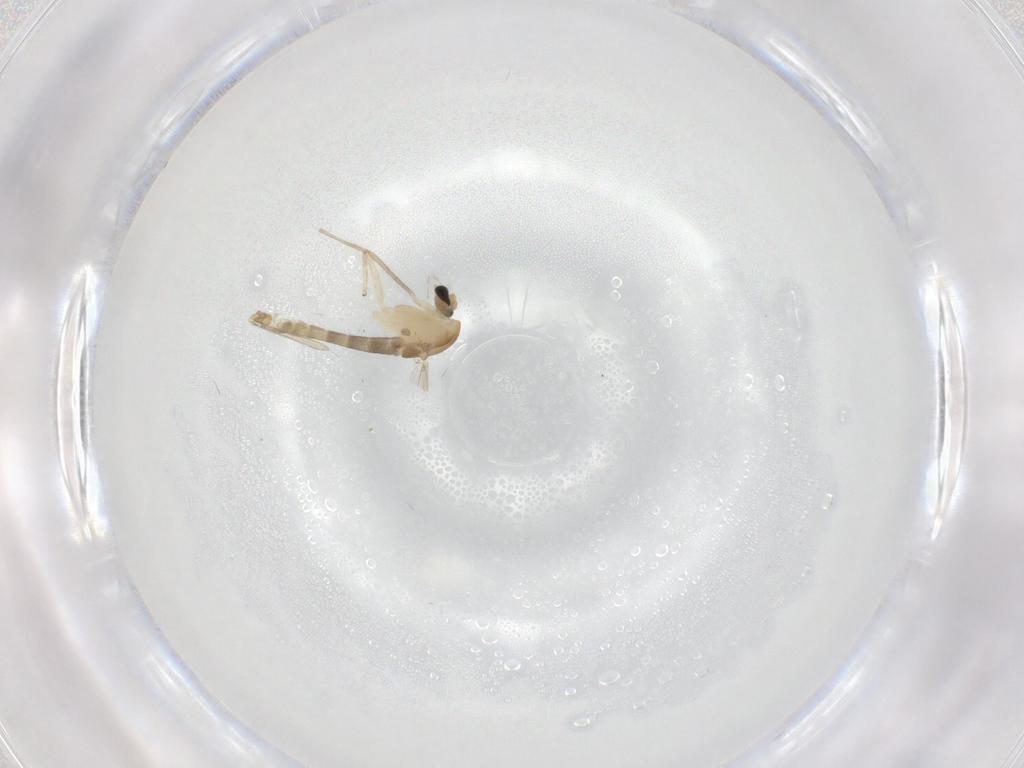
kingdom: Animalia
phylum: Arthropoda
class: Insecta
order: Diptera
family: Chironomidae
